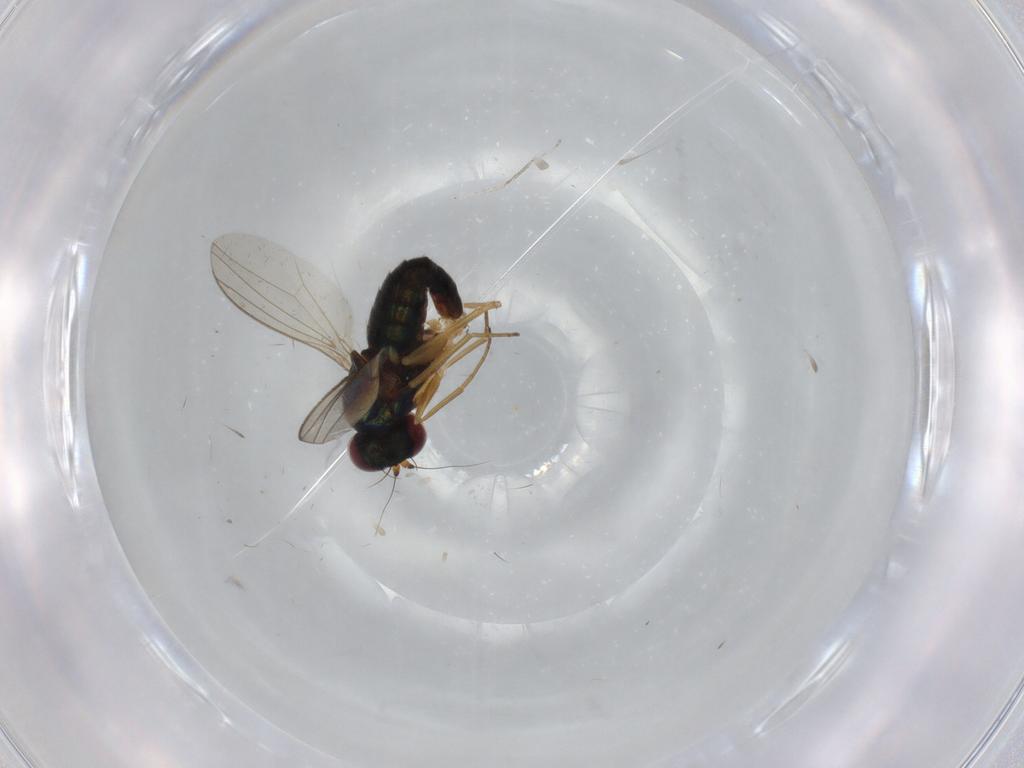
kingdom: Animalia
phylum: Arthropoda
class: Insecta
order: Diptera
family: Dolichopodidae
